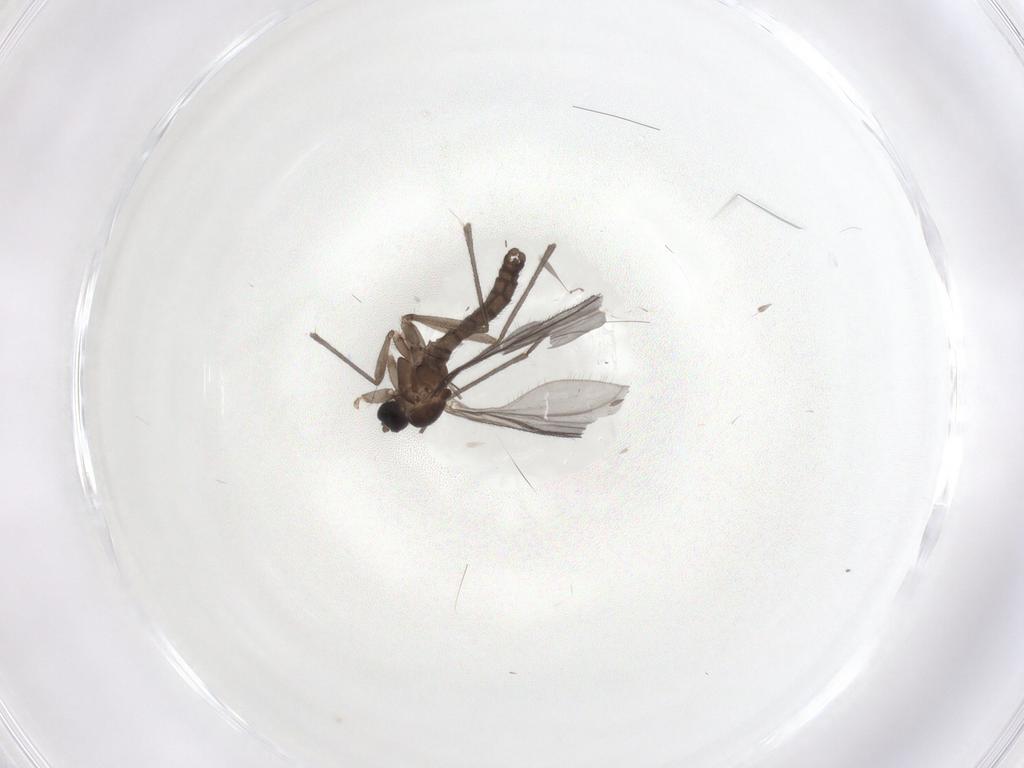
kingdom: Animalia
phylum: Arthropoda
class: Insecta
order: Diptera
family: Sciaridae
